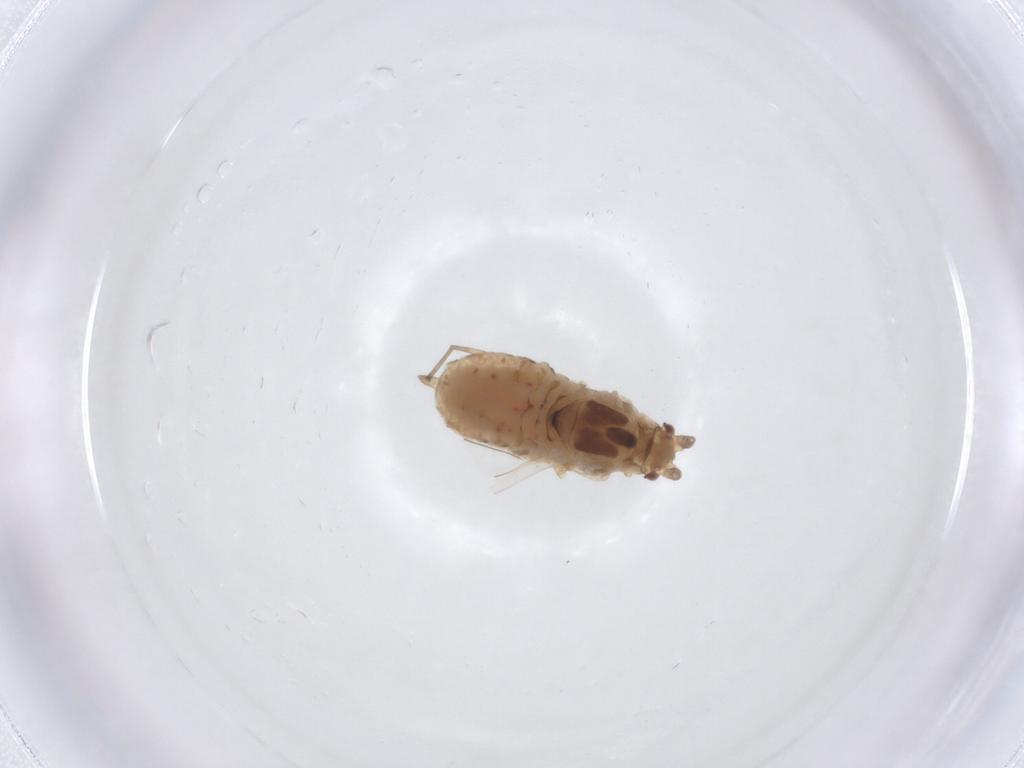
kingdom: Animalia
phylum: Arthropoda
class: Insecta
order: Hemiptera
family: Aphididae
